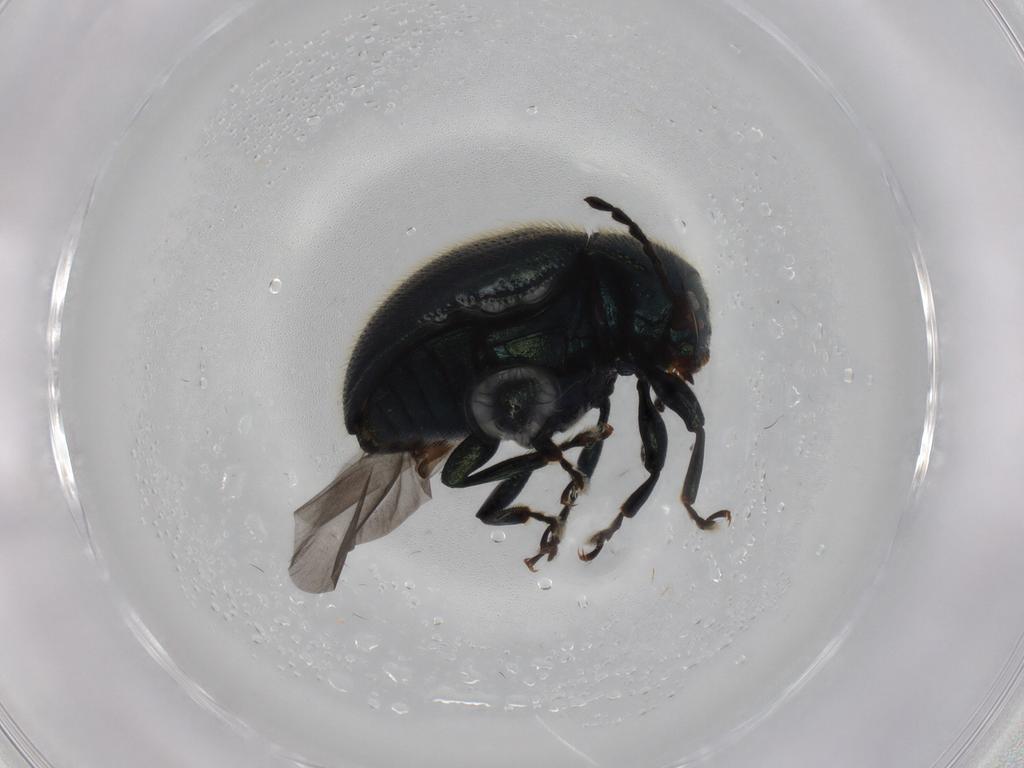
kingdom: Animalia
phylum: Arthropoda
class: Insecta
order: Coleoptera
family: Chrysomelidae
